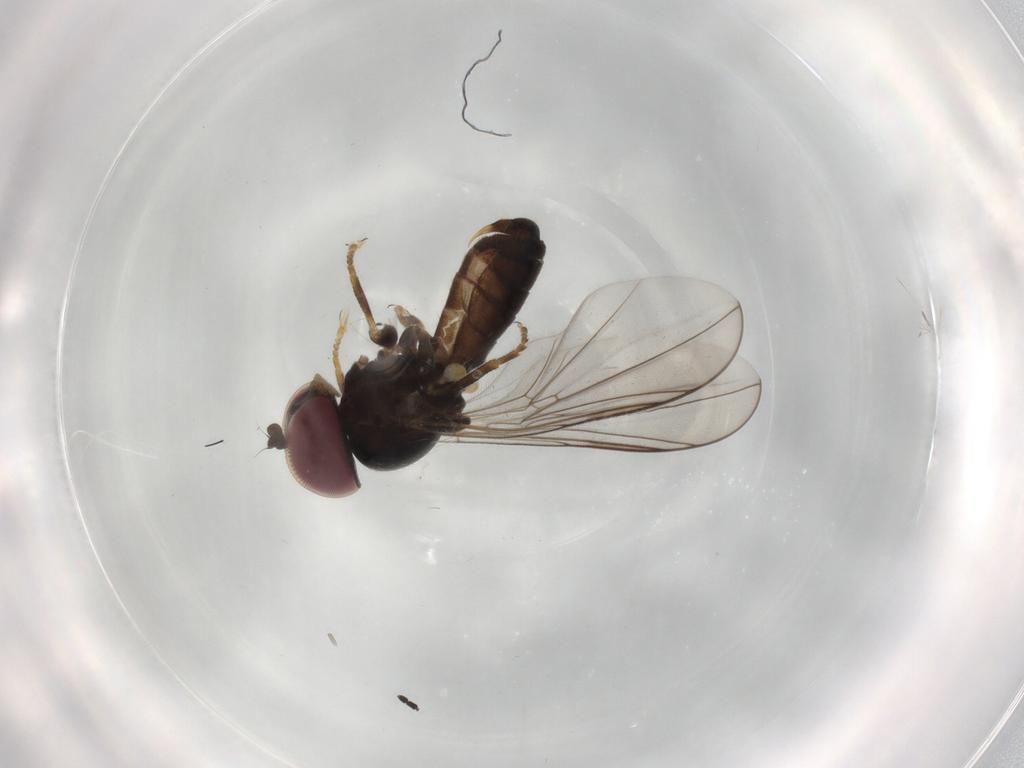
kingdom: Animalia
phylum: Arthropoda
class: Insecta
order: Diptera
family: Pipunculidae
